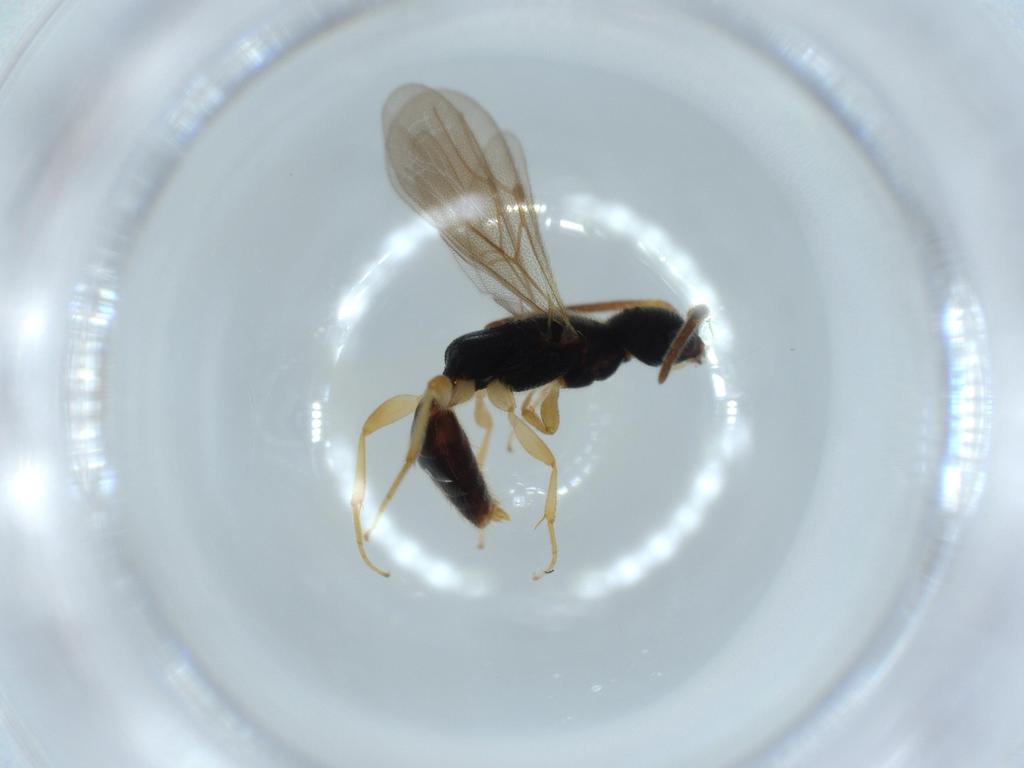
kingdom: Animalia
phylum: Arthropoda
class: Insecta
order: Hymenoptera
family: Bethylidae
